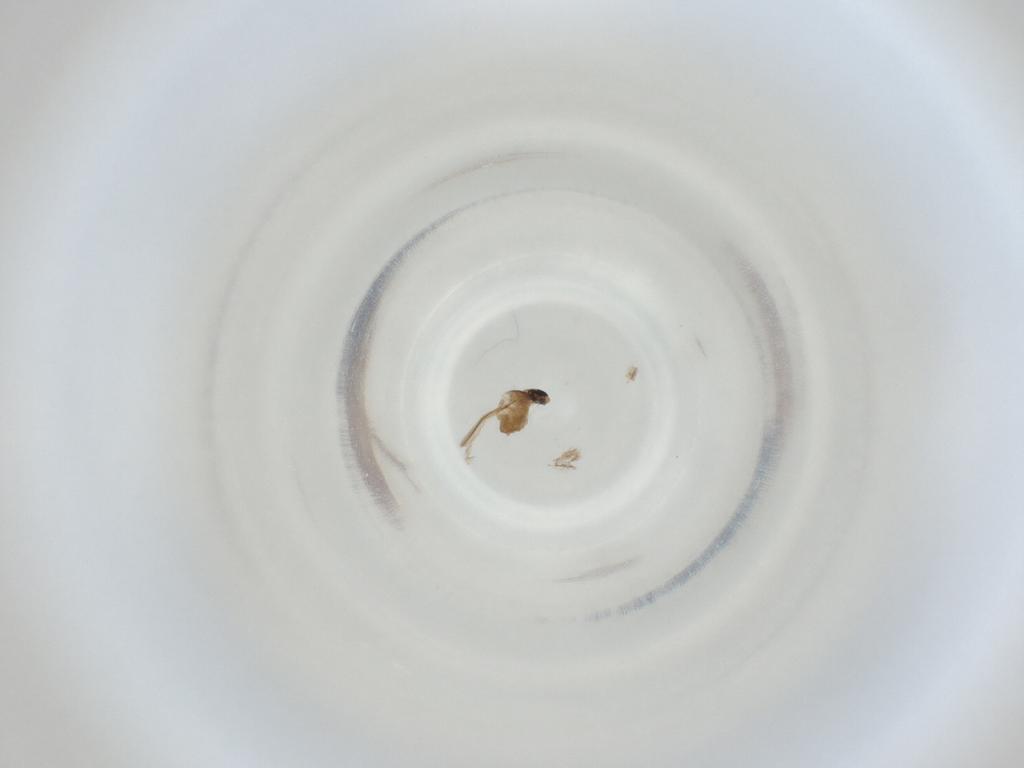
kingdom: Animalia
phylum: Arthropoda
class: Insecta
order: Diptera
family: Cecidomyiidae
